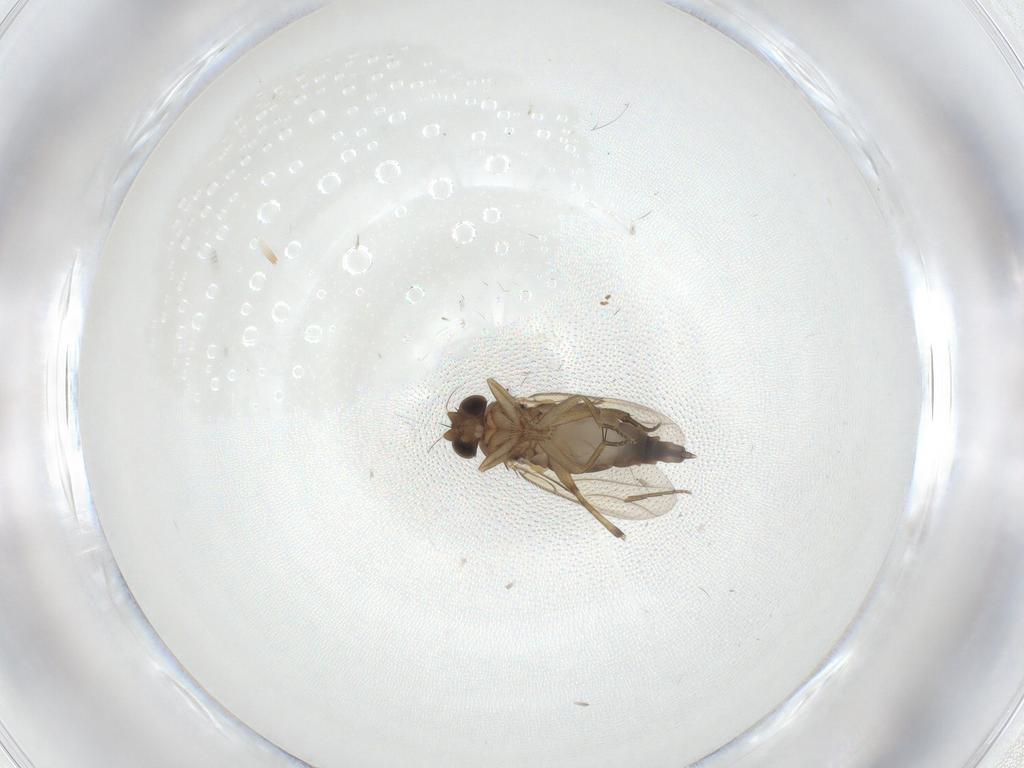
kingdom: Animalia
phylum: Arthropoda
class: Insecta
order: Diptera
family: Phoridae
